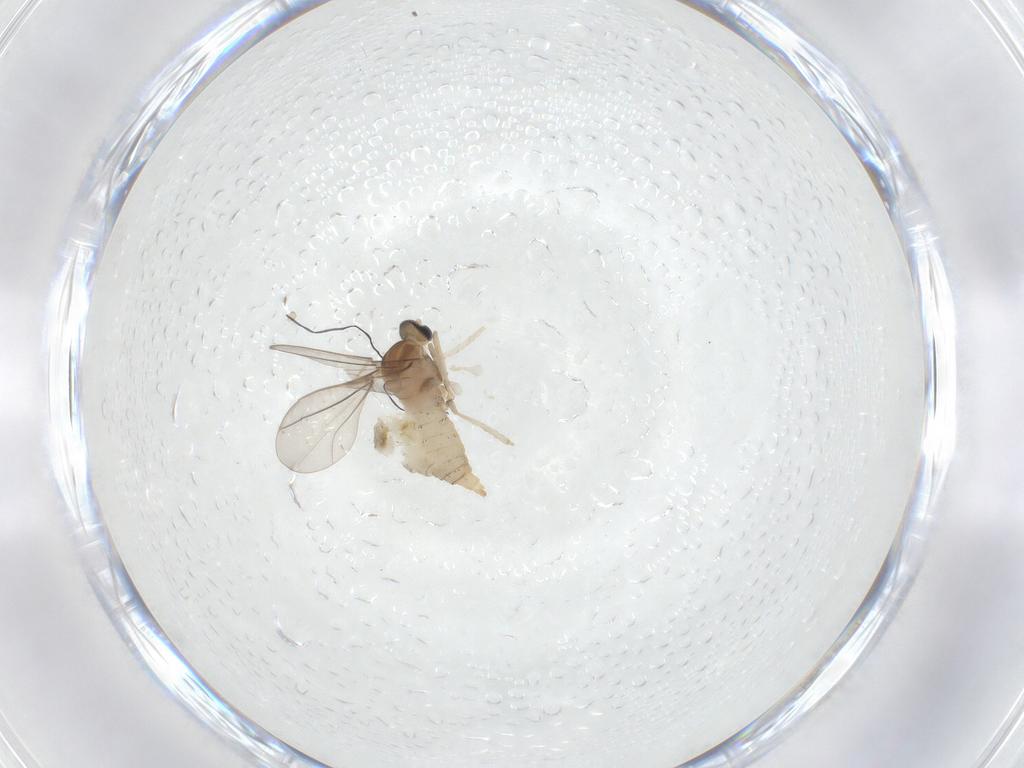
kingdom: Animalia
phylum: Arthropoda
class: Insecta
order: Diptera
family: Cecidomyiidae
